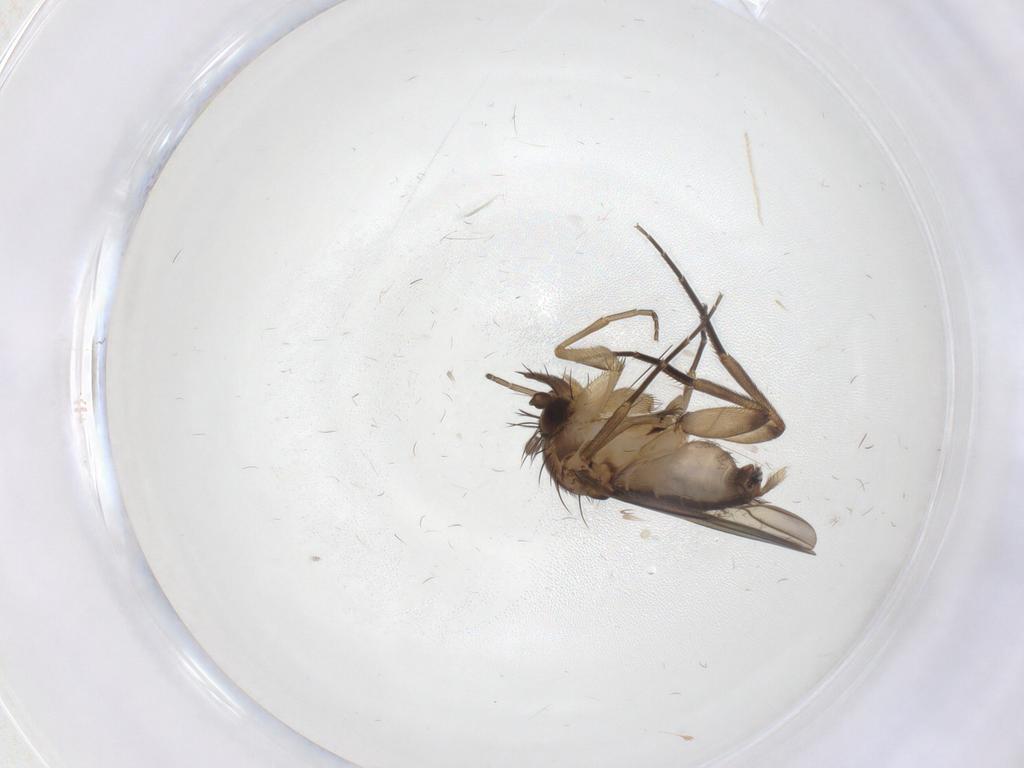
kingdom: Animalia
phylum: Arthropoda
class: Insecta
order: Diptera
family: Phoridae
